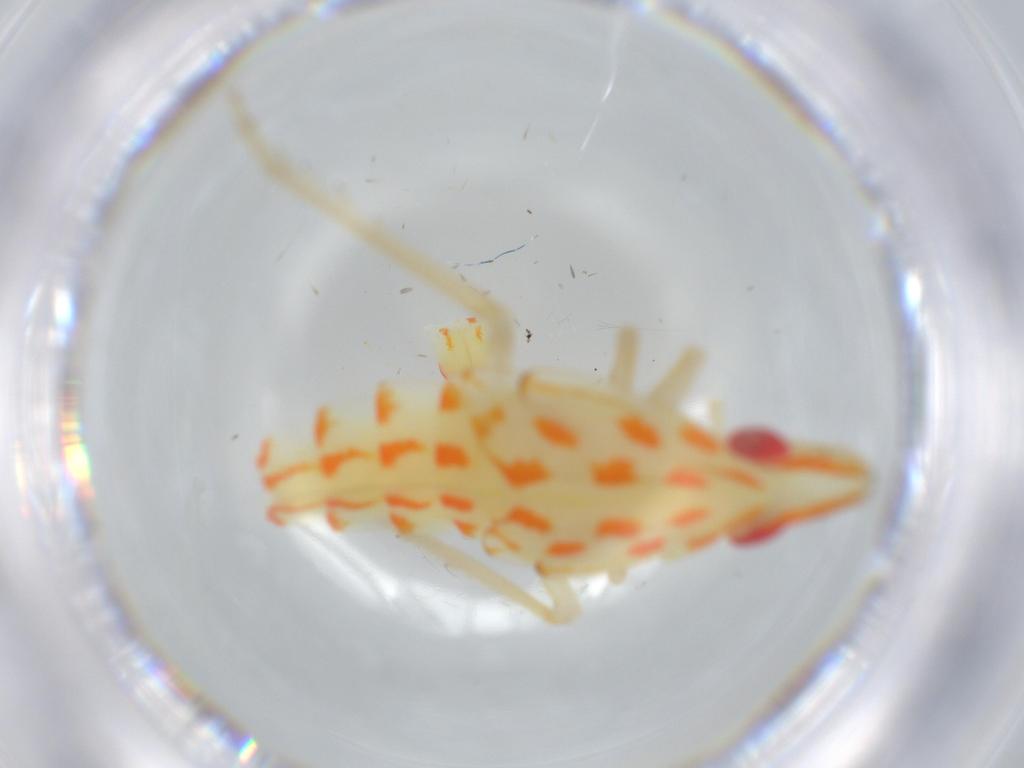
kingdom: Animalia
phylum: Arthropoda
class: Insecta
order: Hemiptera
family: Tropiduchidae
